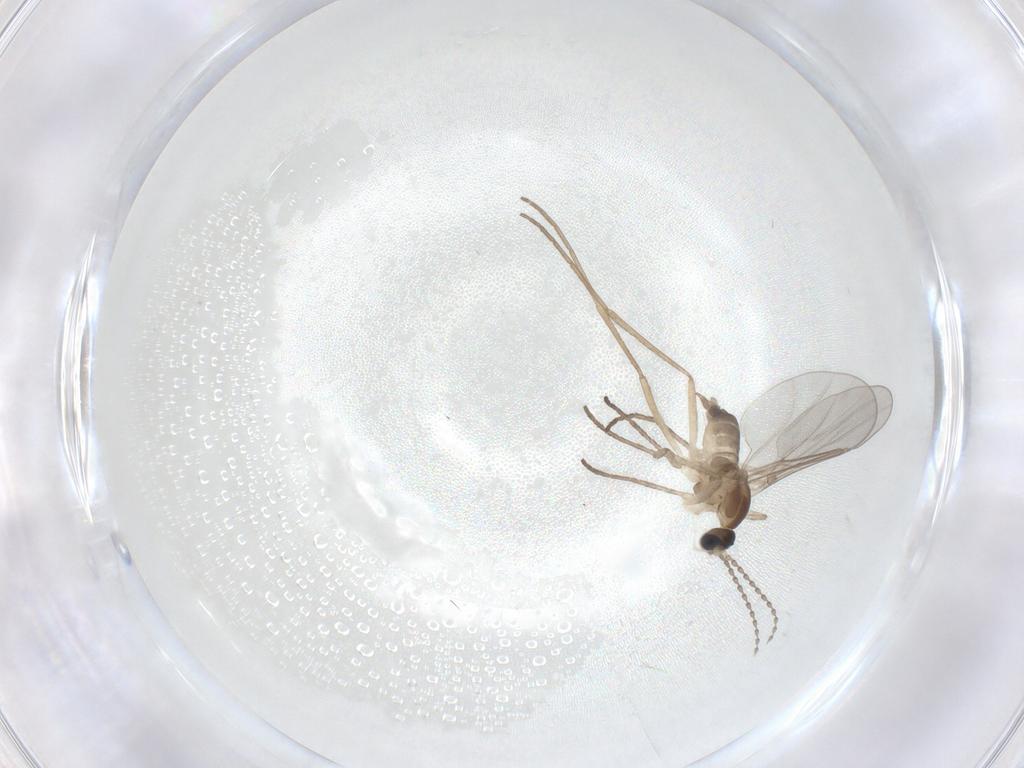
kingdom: Animalia
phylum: Arthropoda
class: Insecta
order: Diptera
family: Cecidomyiidae
